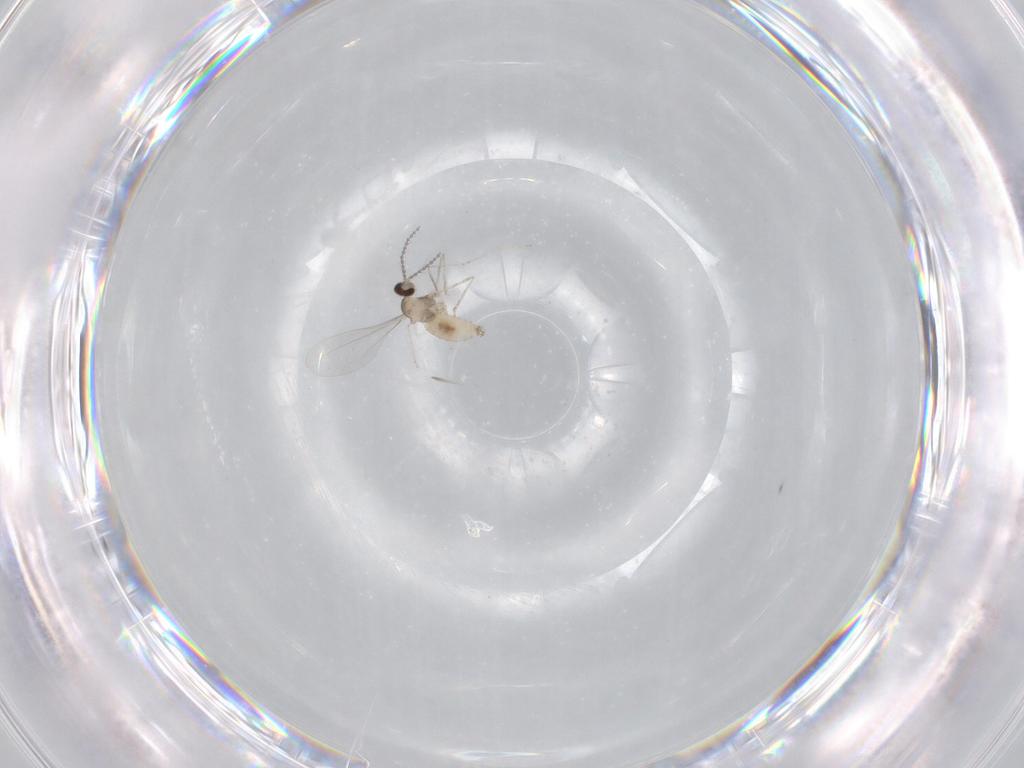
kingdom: Animalia
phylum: Arthropoda
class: Insecta
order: Diptera
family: Cecidomyiidae
